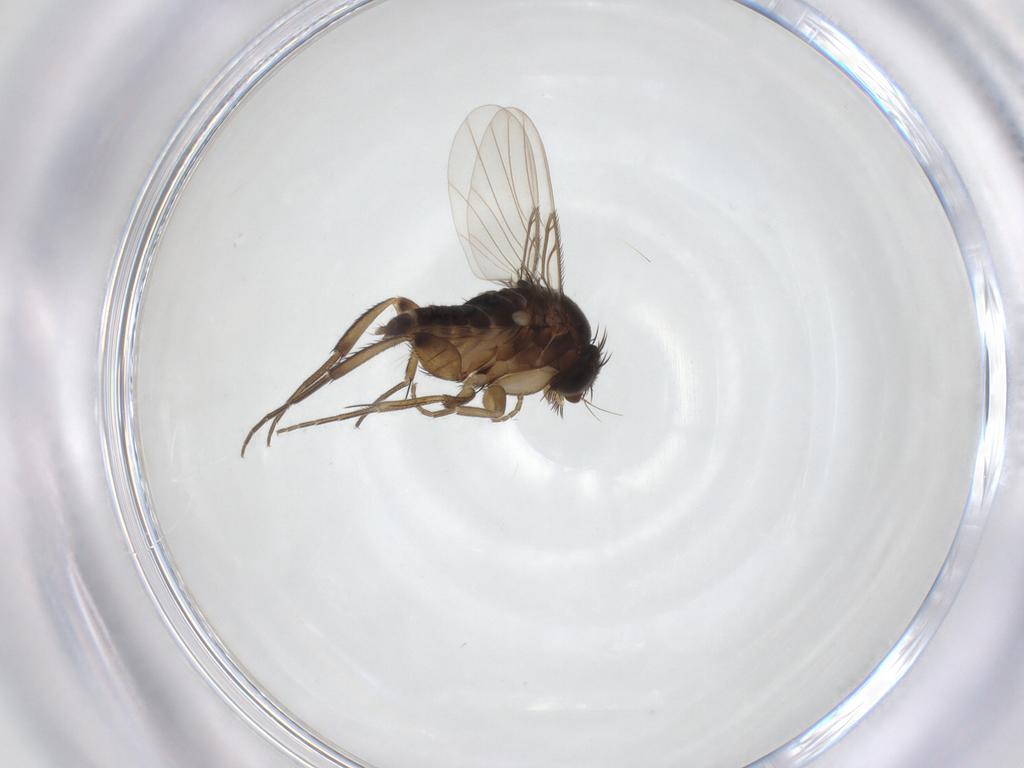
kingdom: Animalia
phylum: Arthropoda
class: Insecta
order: Diptera
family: Phoridae
